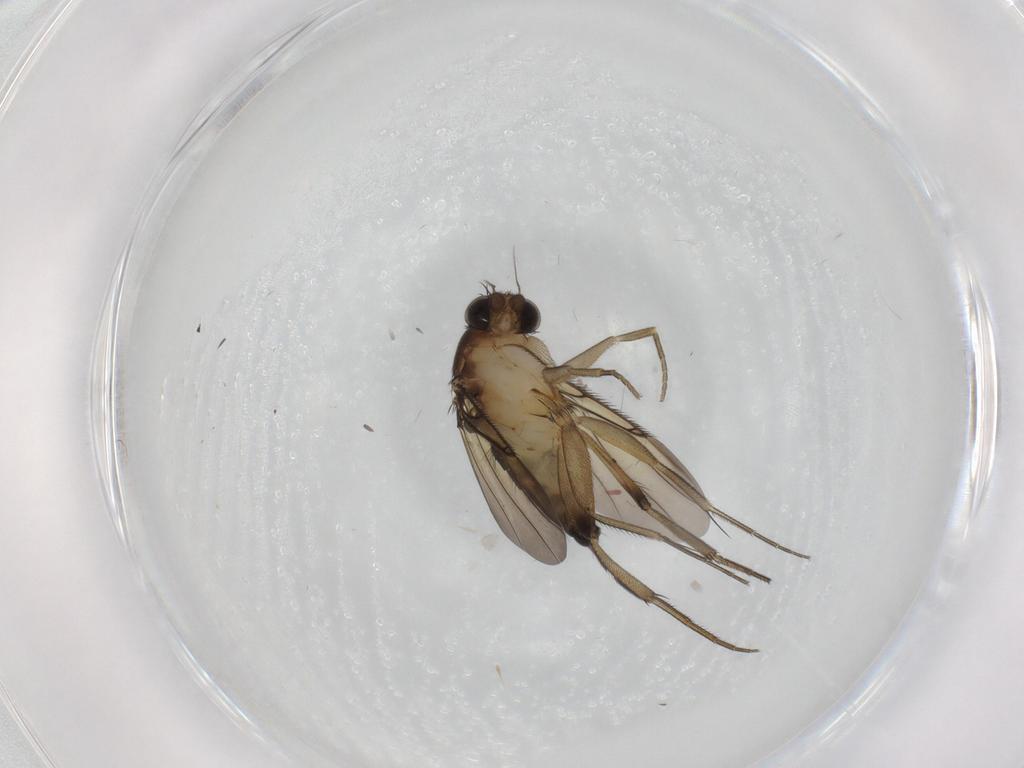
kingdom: Animalia
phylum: Arthropoda
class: Insecta
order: Diptera
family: Phoridae
